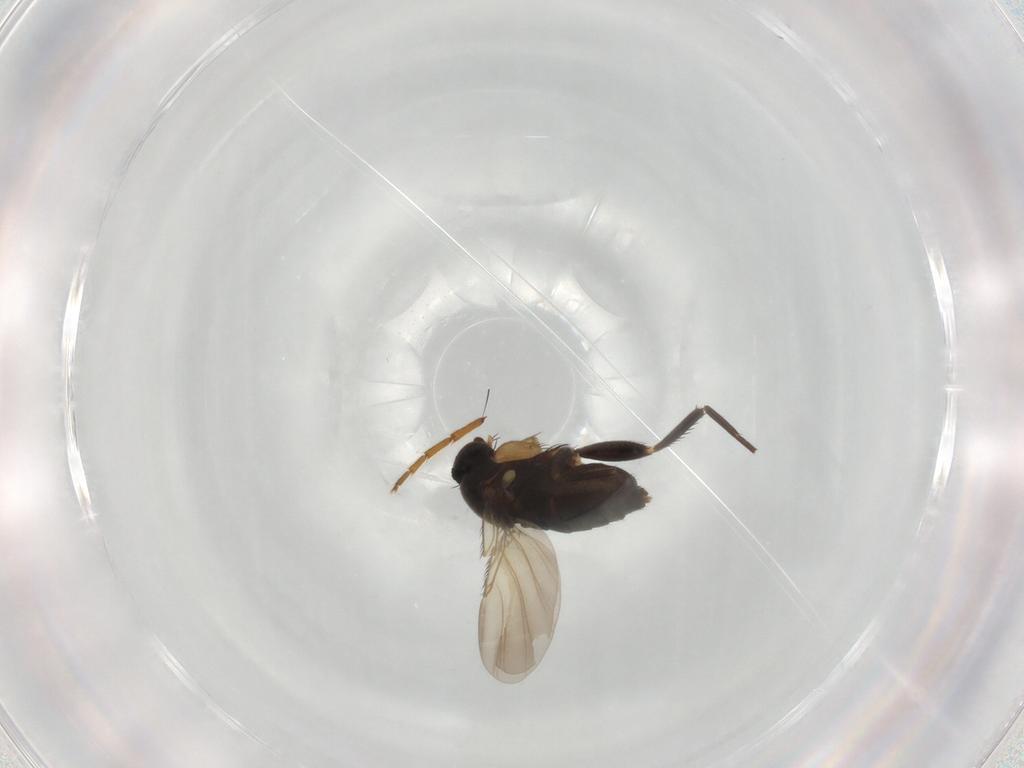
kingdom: Animalia
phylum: Arthropoda
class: Insecta
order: Diptera
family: Phoridae
